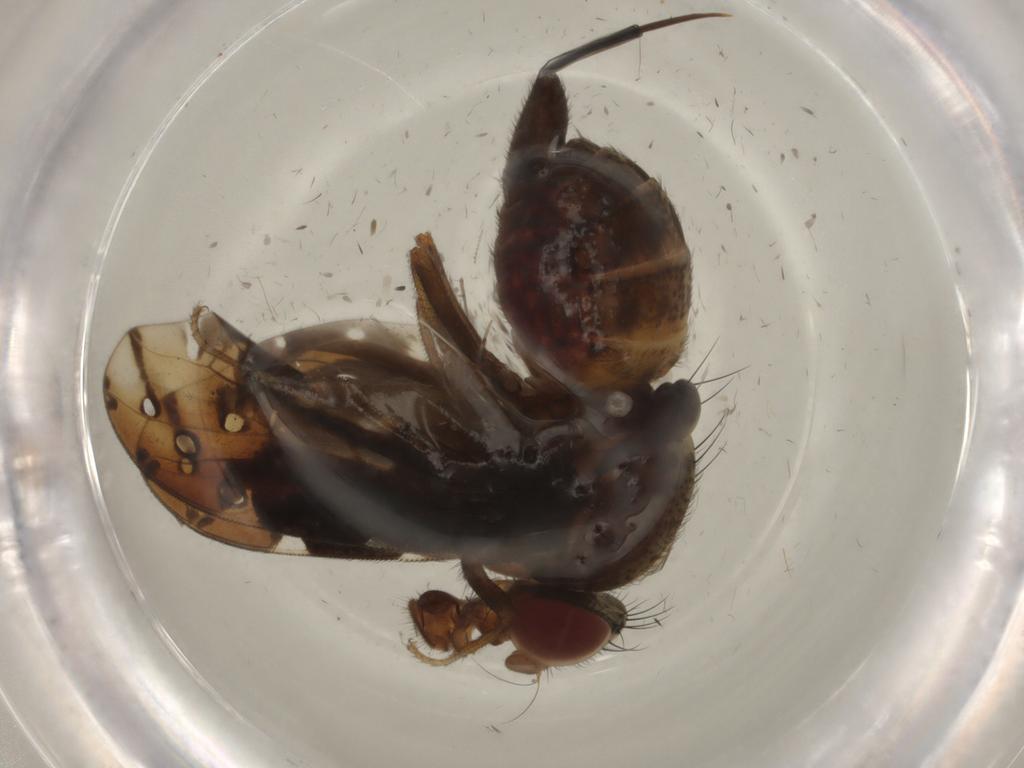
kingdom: Animalia
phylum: Arthropoda
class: Insecta
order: Diptera
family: Ulidiidae
